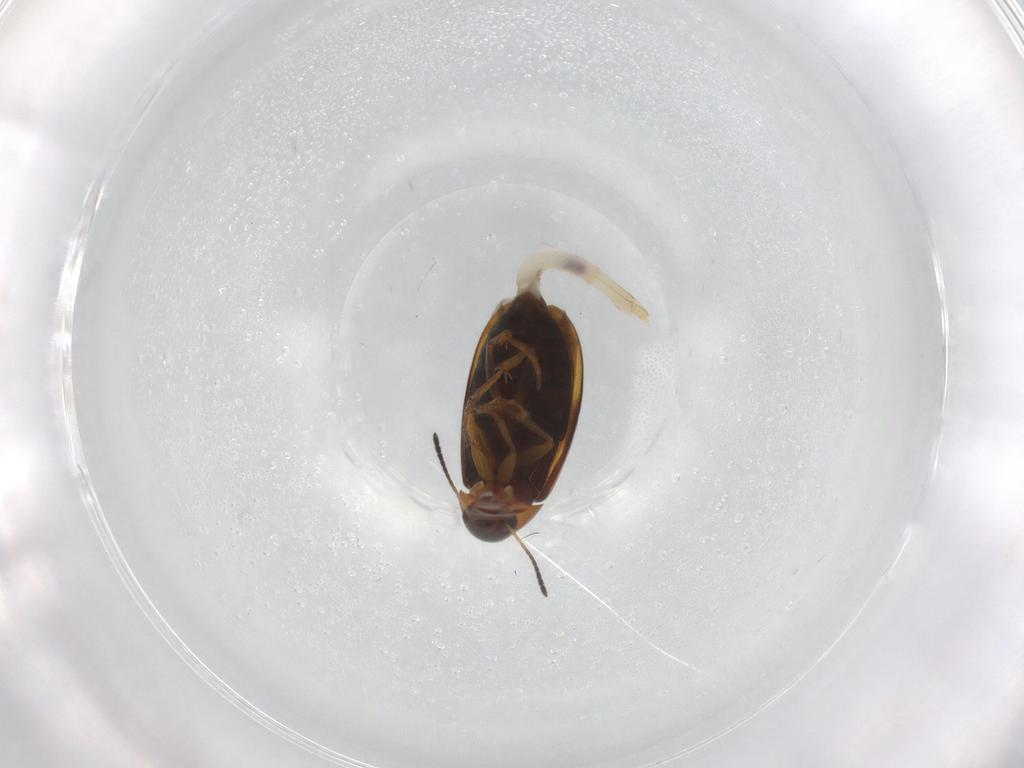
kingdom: Animalia
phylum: Arthropoda
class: Insecta
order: Coleoptera
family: Scraptiidae
